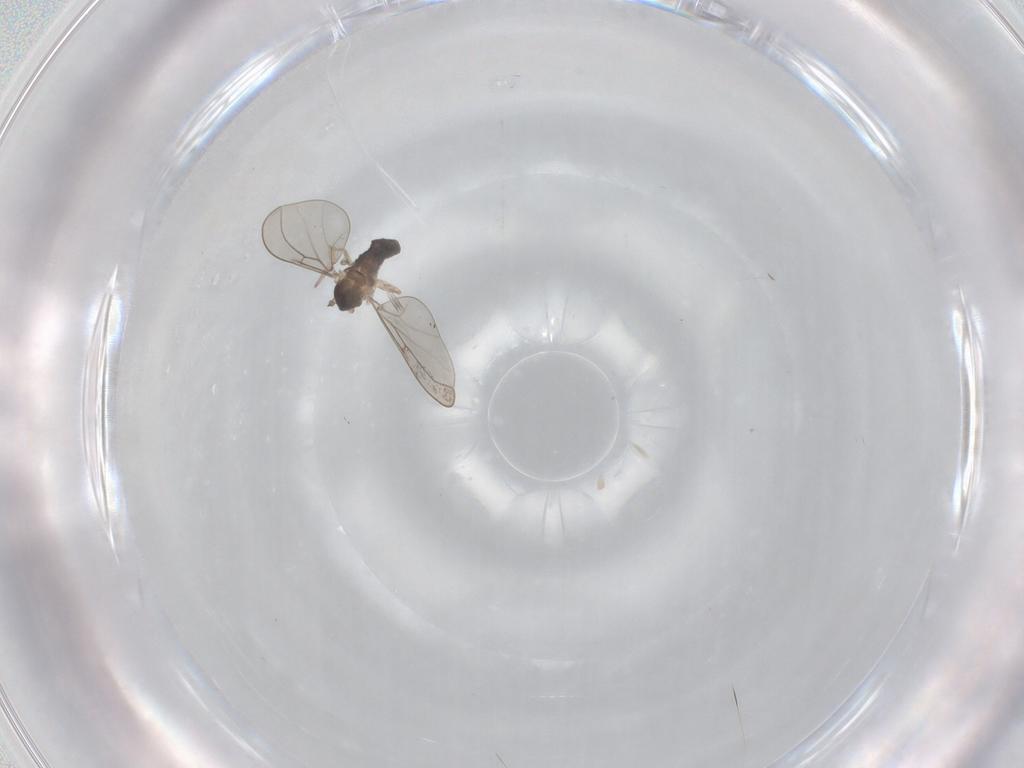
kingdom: Animalia
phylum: Arthropoda
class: Insecta
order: Diptera
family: Cecidomyiidae
